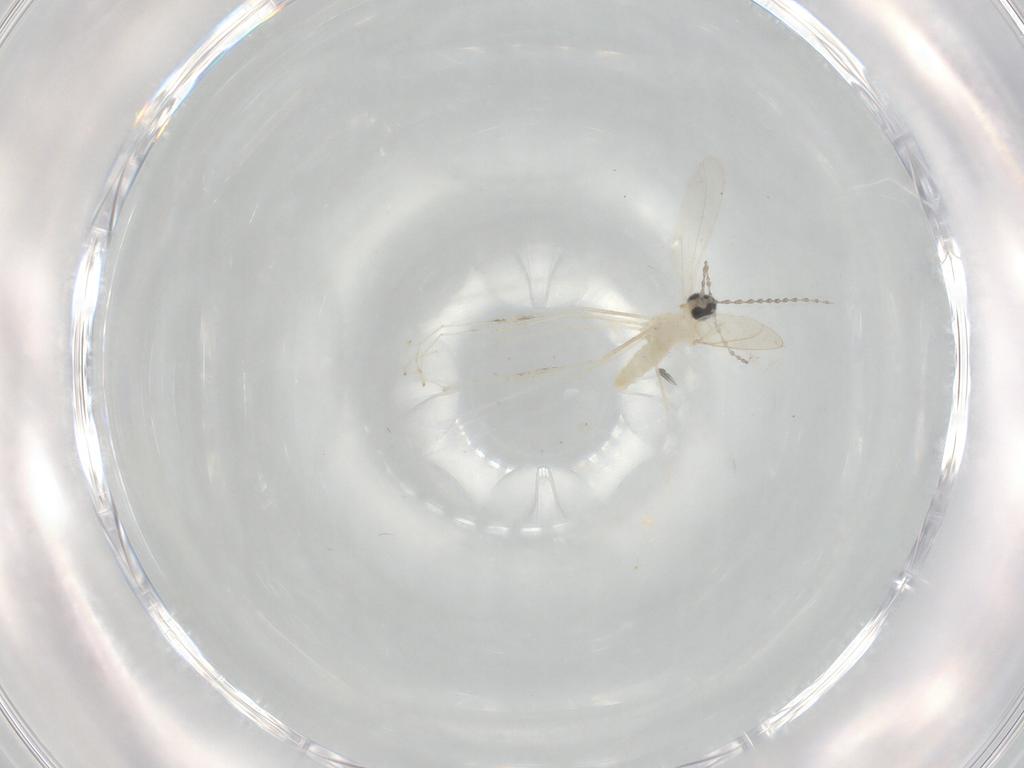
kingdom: Animalia
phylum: Arthropoda
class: Insecta
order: Diptera
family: Cecidomyiidae
